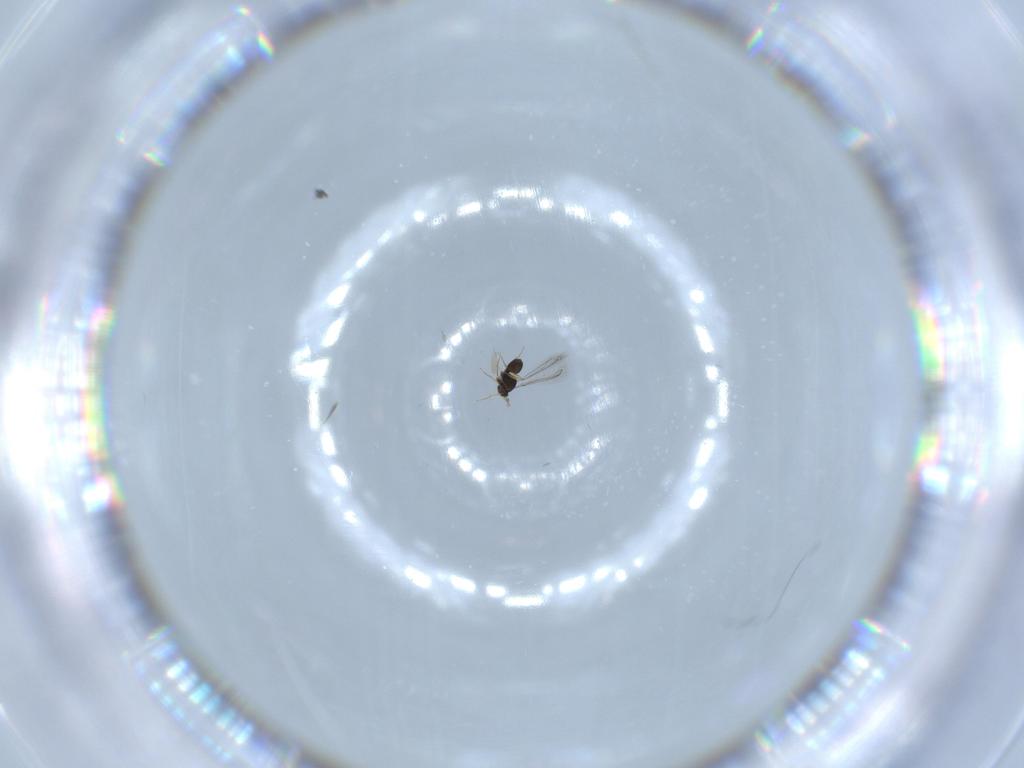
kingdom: Animalia
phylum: Arthropoda
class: Insecta
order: Hymenoptera
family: Mymaridae
